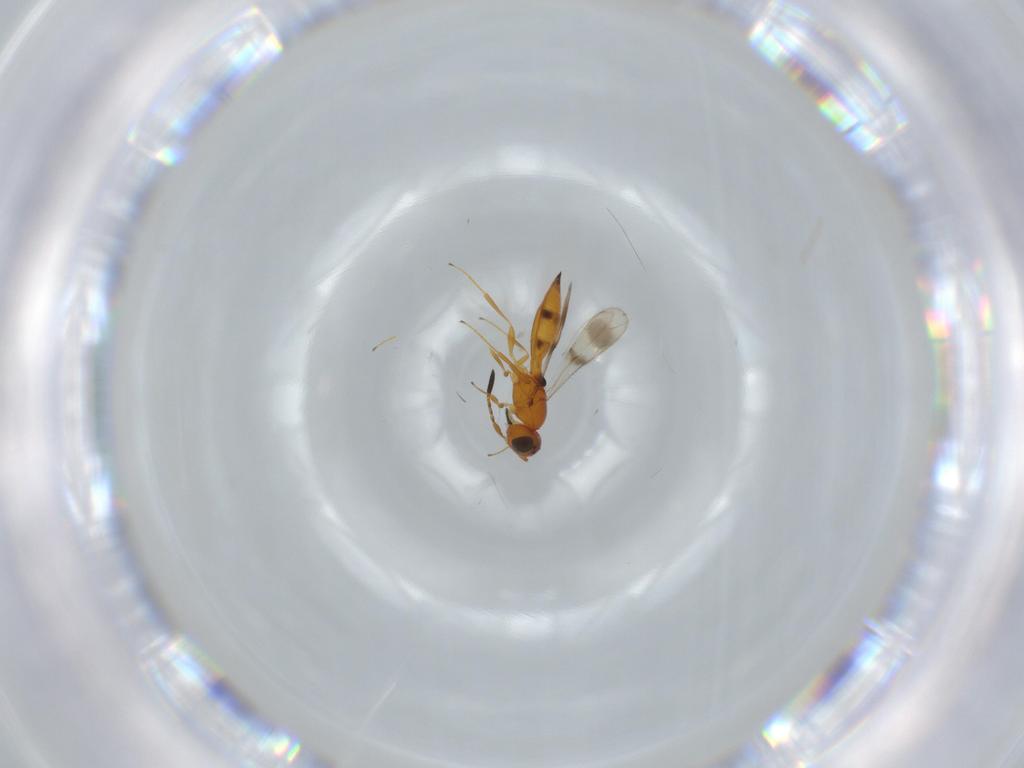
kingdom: Animalia
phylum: Arthropoda
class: Insecta
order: Hymenoptera
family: Scelionidae
